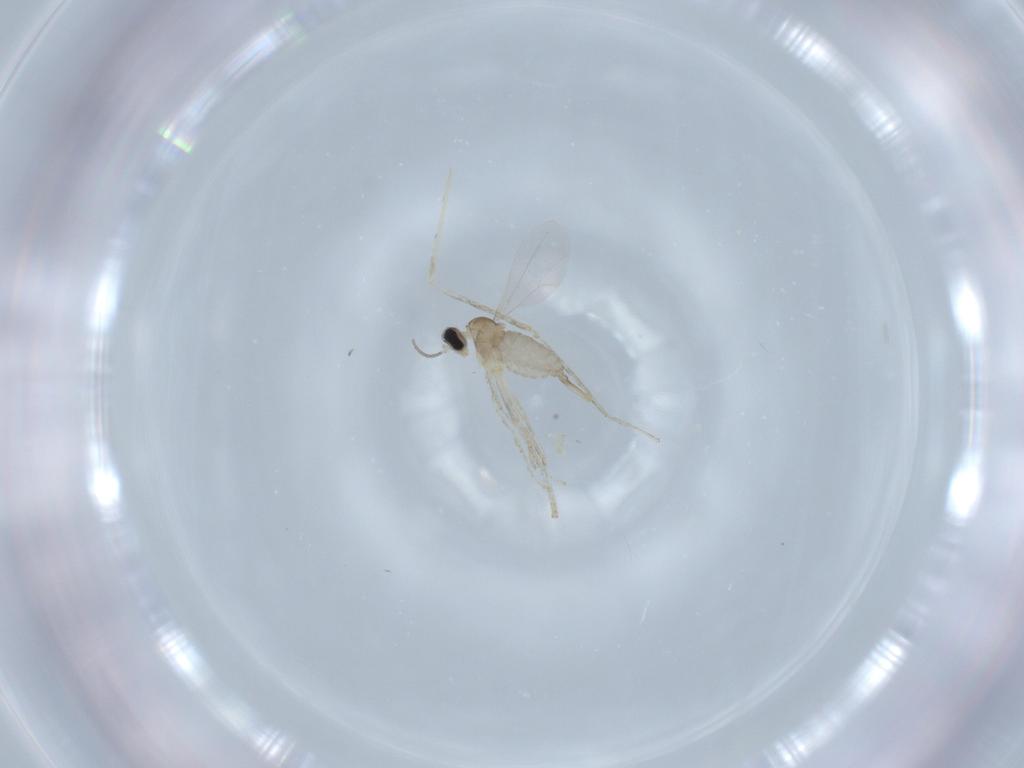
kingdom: Animalia
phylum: Arthropoda
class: Insecta
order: Diptera
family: Cecidomyiidae
